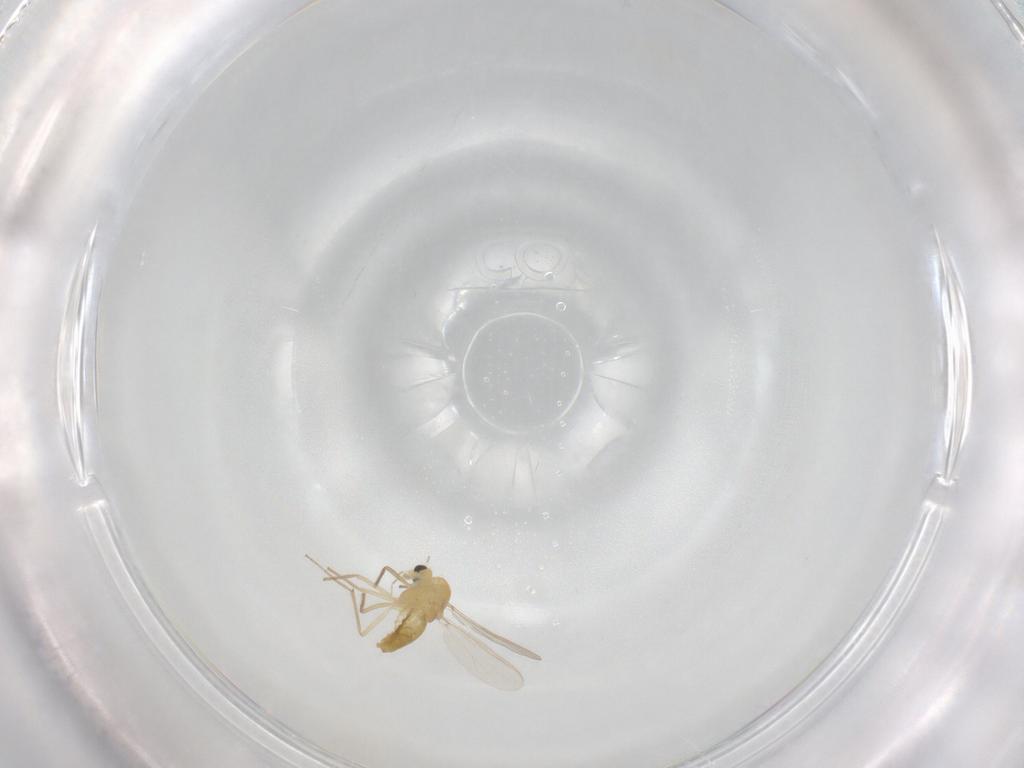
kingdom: Animalia
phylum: Arthropoda
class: Insecta
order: Diptera
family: Chironomidae
